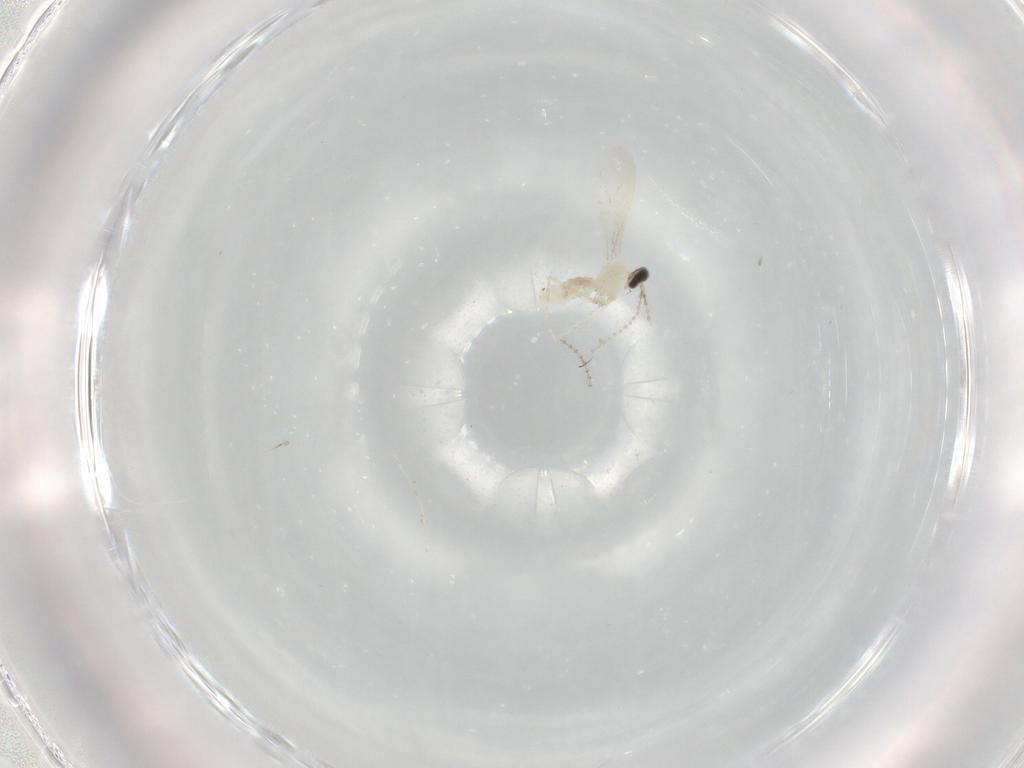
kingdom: Animalia
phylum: Arthropoda
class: Insecta
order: Diptera
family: Cecidomyiidae
